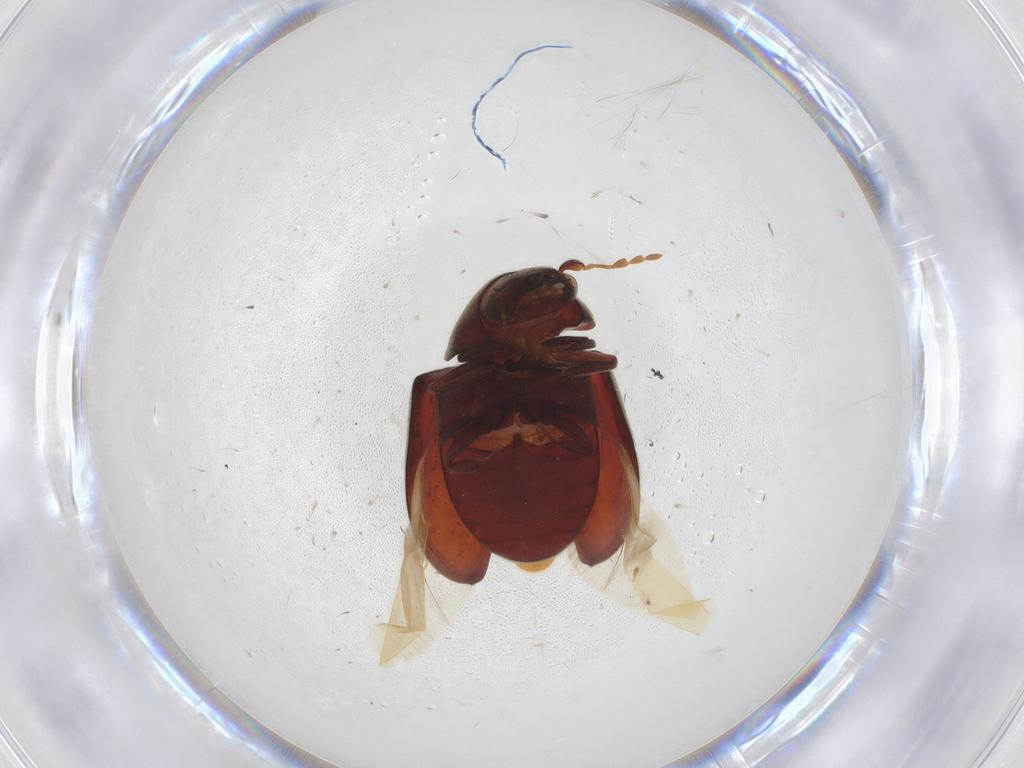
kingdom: Animalia
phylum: Arthropoda
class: Insecta
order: Coleoptera
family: Anobiidae
